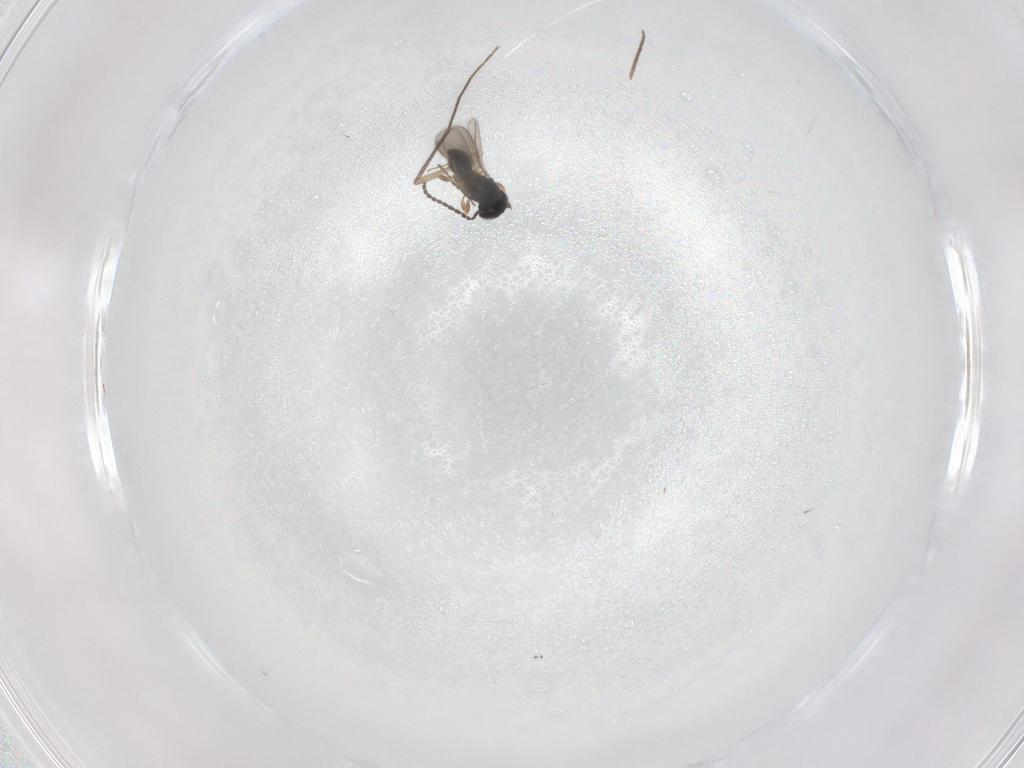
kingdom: Animalia
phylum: Arthropoda
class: Insecta
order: Hymenoptera
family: Scelionidae
